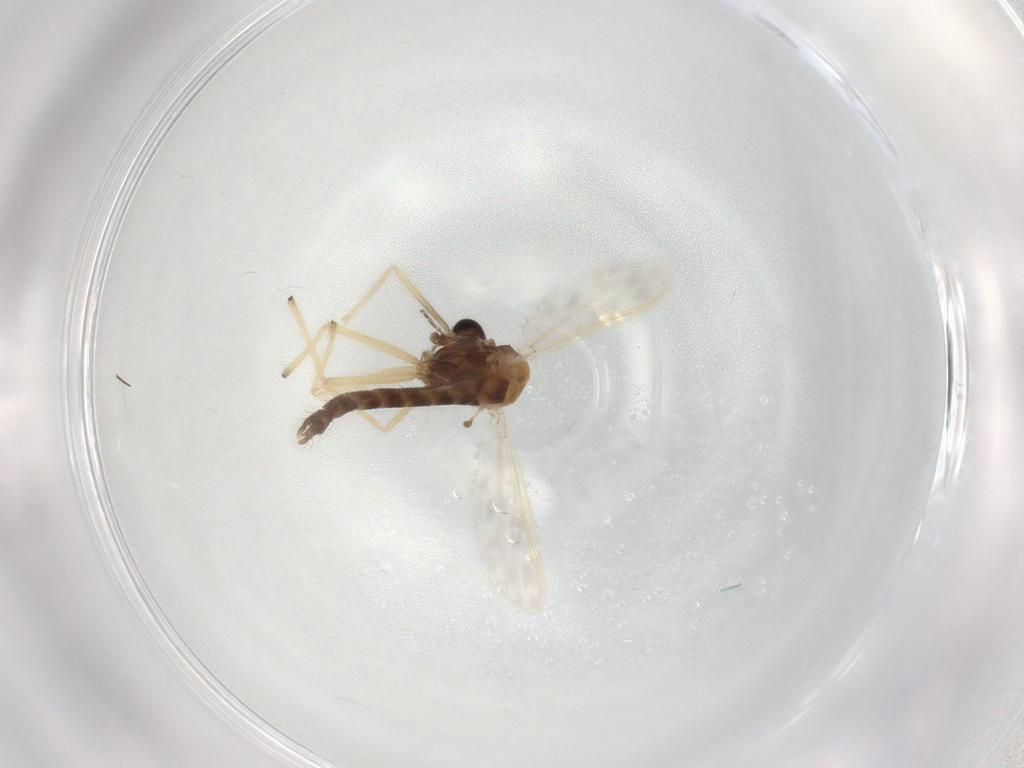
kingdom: Animalia
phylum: Arthropoda
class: Insecta
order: Diptera
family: Chironomidae
